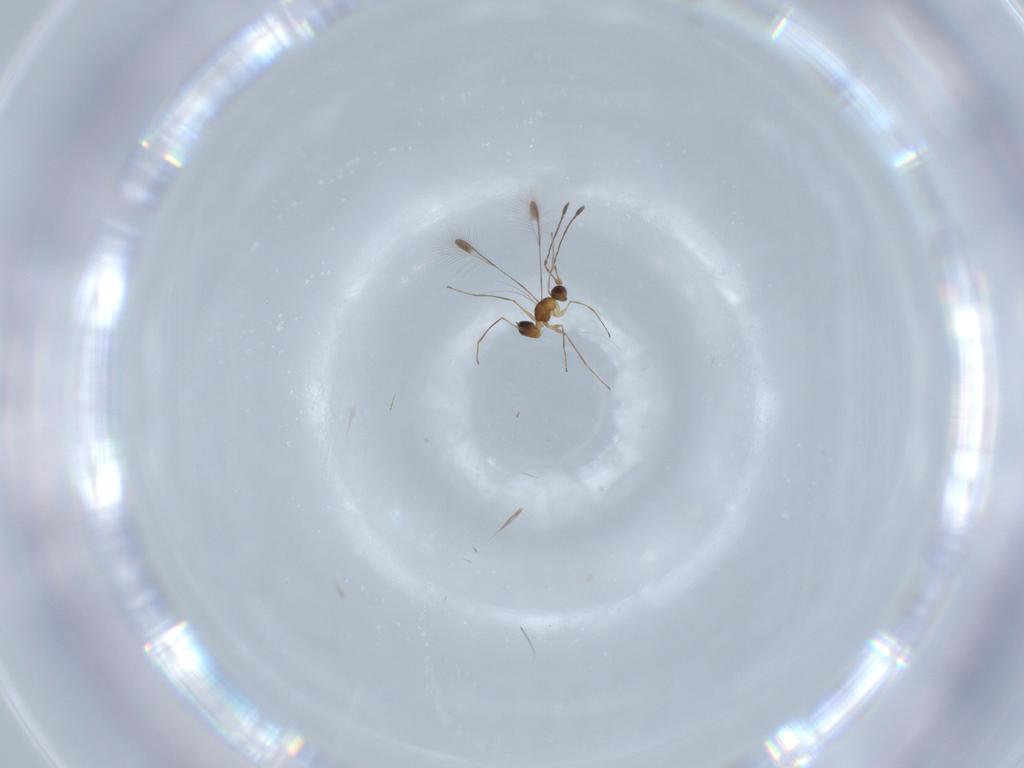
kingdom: Animalia
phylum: Arthropoda
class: Insecta
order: Hymenoptera
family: Mymaridae
